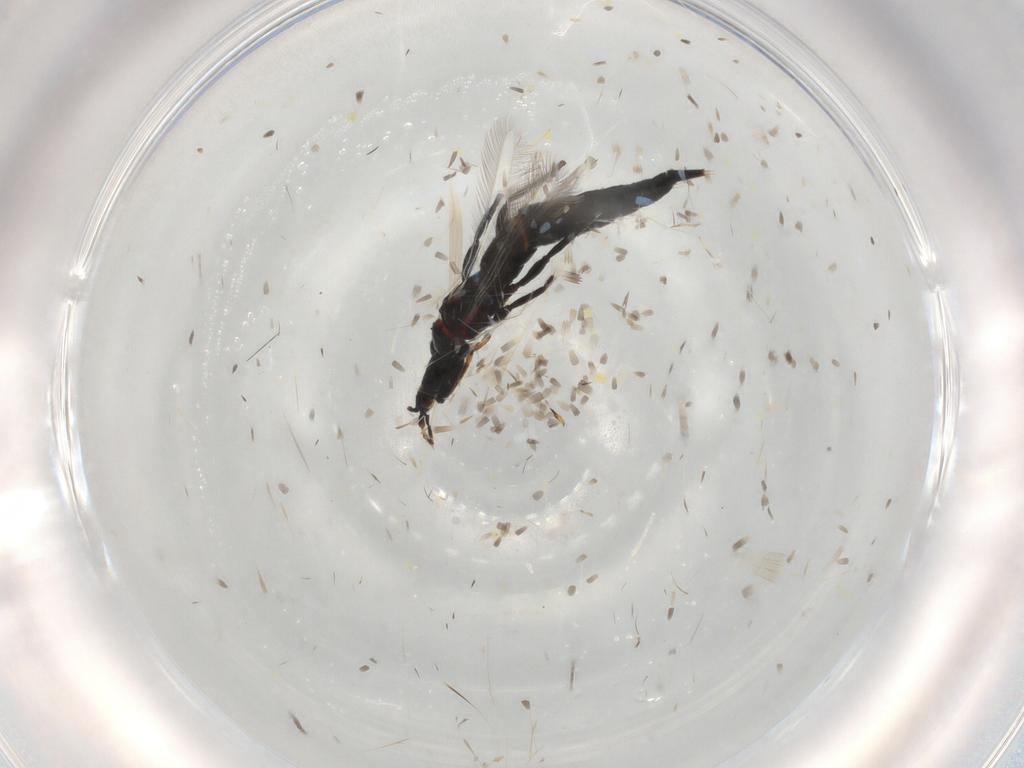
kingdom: Animalia
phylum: Arthropoda
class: Insecta
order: Thysanoptera
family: Phlaeothripidae
